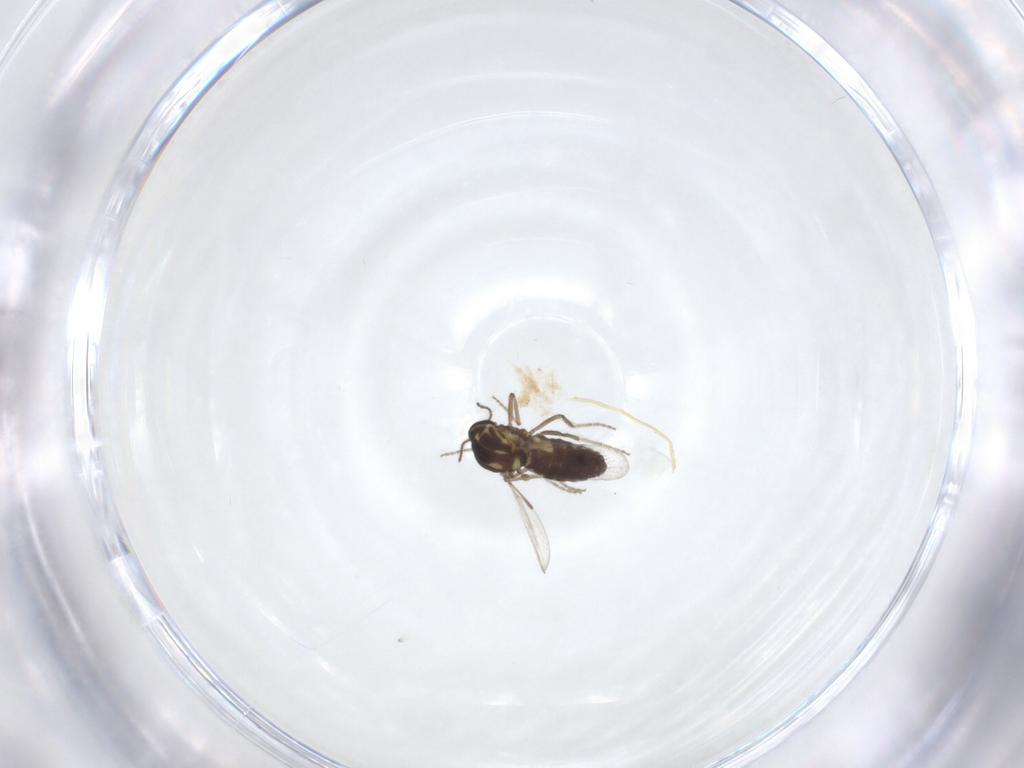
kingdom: Animalia
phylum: Arthropoda
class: Insecta
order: Diptera
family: Ceratopogonidae
